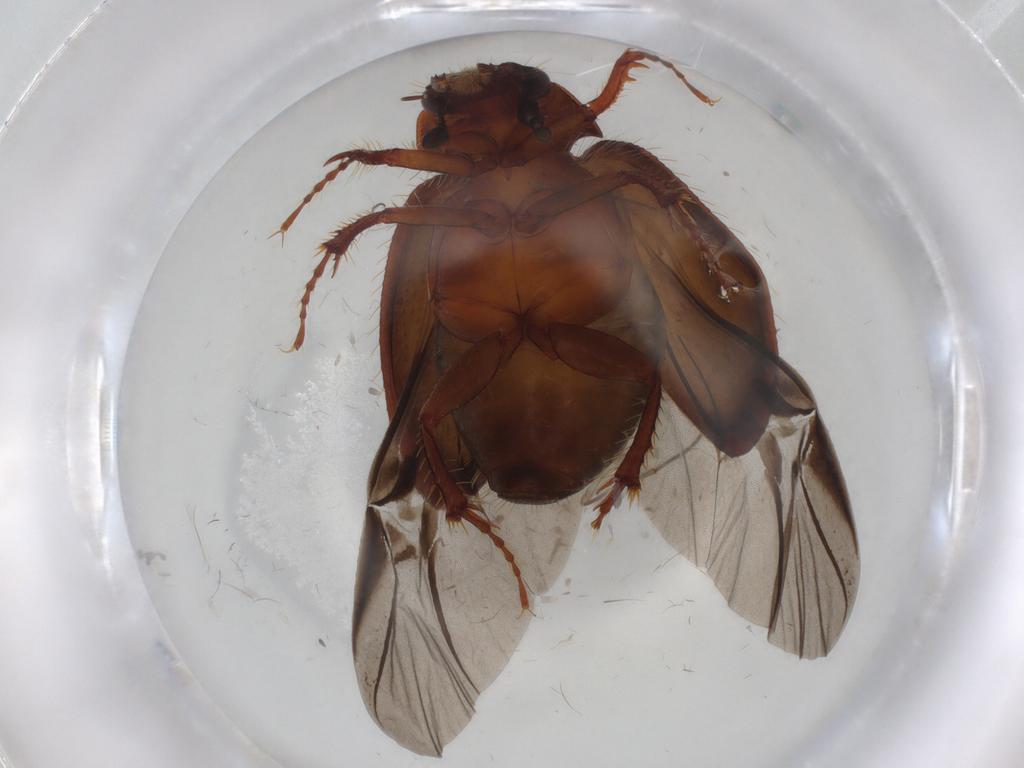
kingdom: Animalia
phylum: Arthropoda
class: Insecta
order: Coleoptera
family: Hybosoridae
